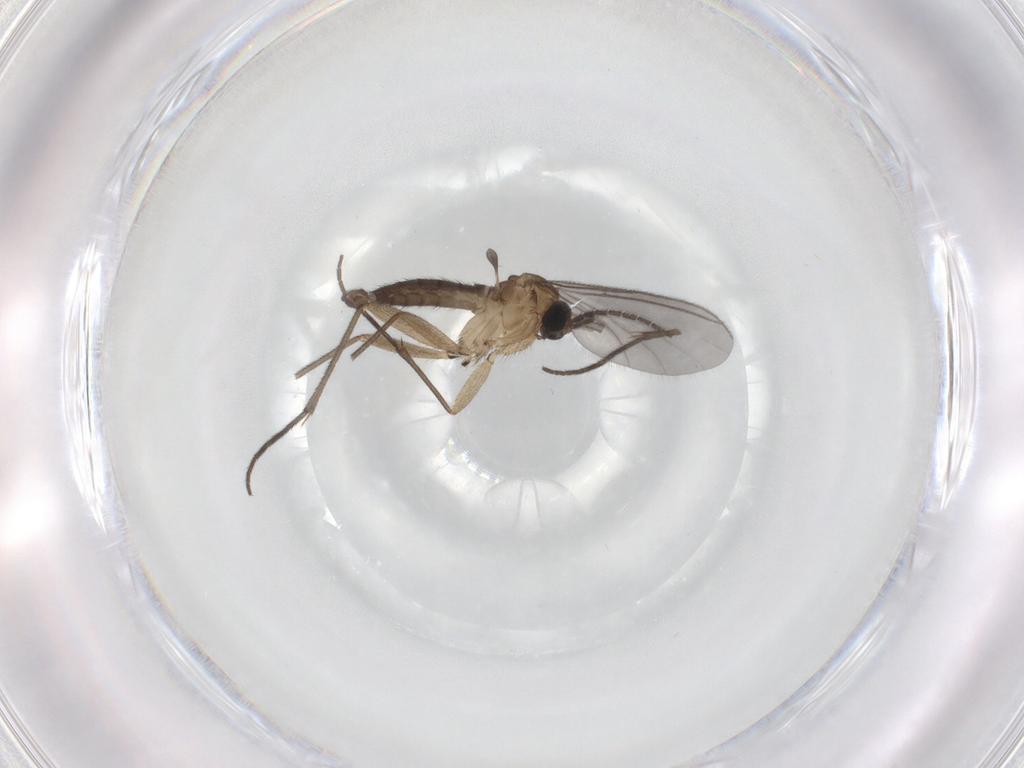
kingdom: Animalia
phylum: Arthropoda
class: Insecta
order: Diptera
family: Sciaridae
